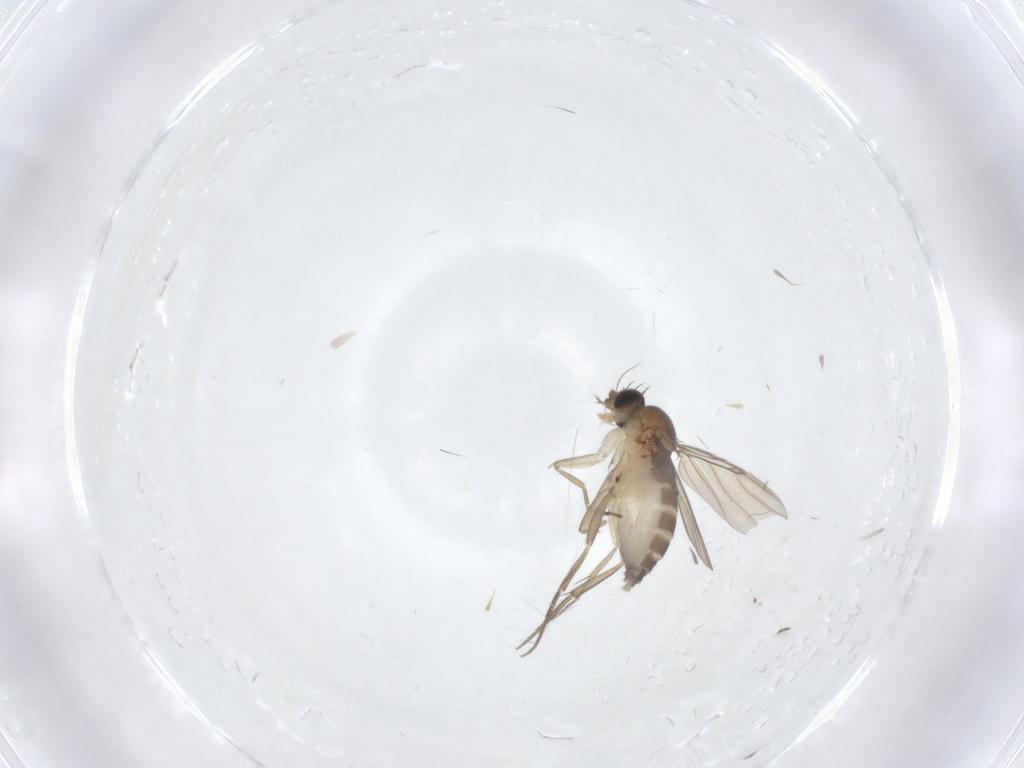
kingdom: Animalia
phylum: Arthropoda
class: Insecta
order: Diptera
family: Phoridae
